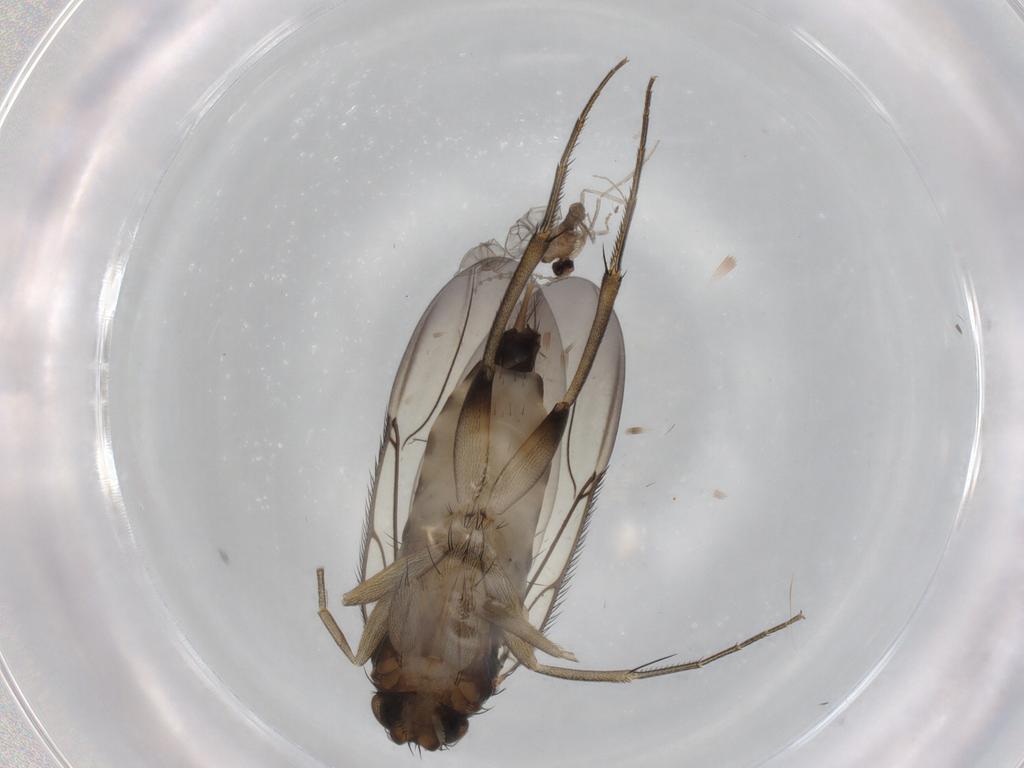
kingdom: Animalia
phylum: Arthropoda
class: Insecta
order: Diptera
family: Cecidomyiidae
